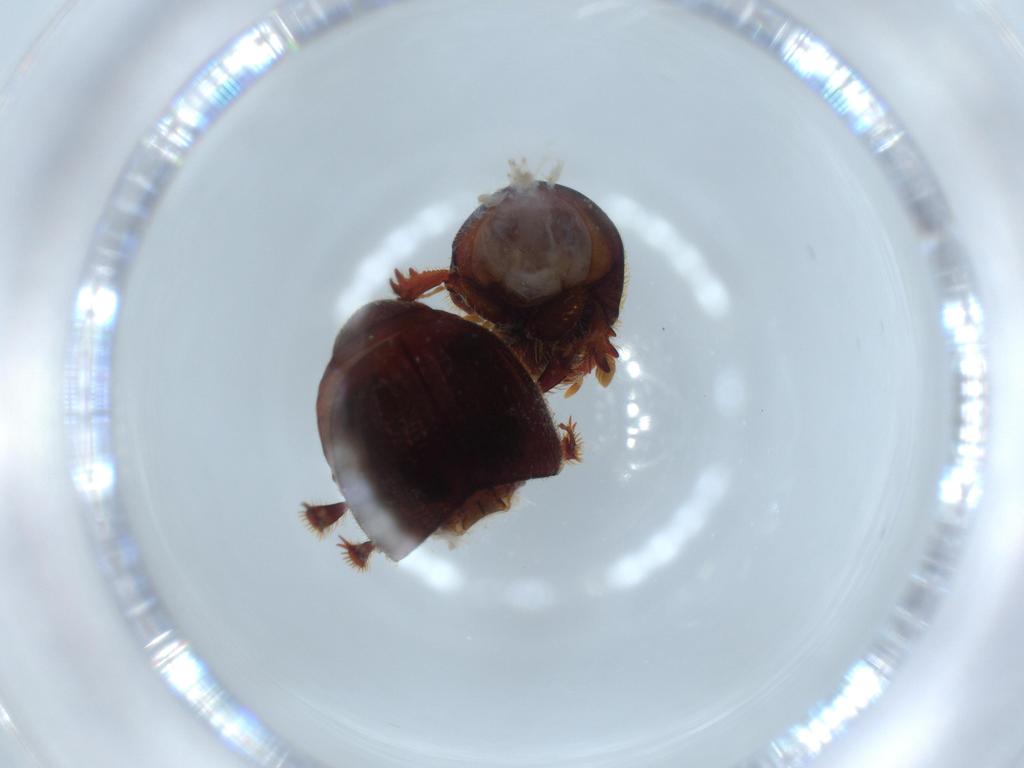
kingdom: Animalia
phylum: Arthropoda
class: Insecta
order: Coleoptera
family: Scarabaeidae
